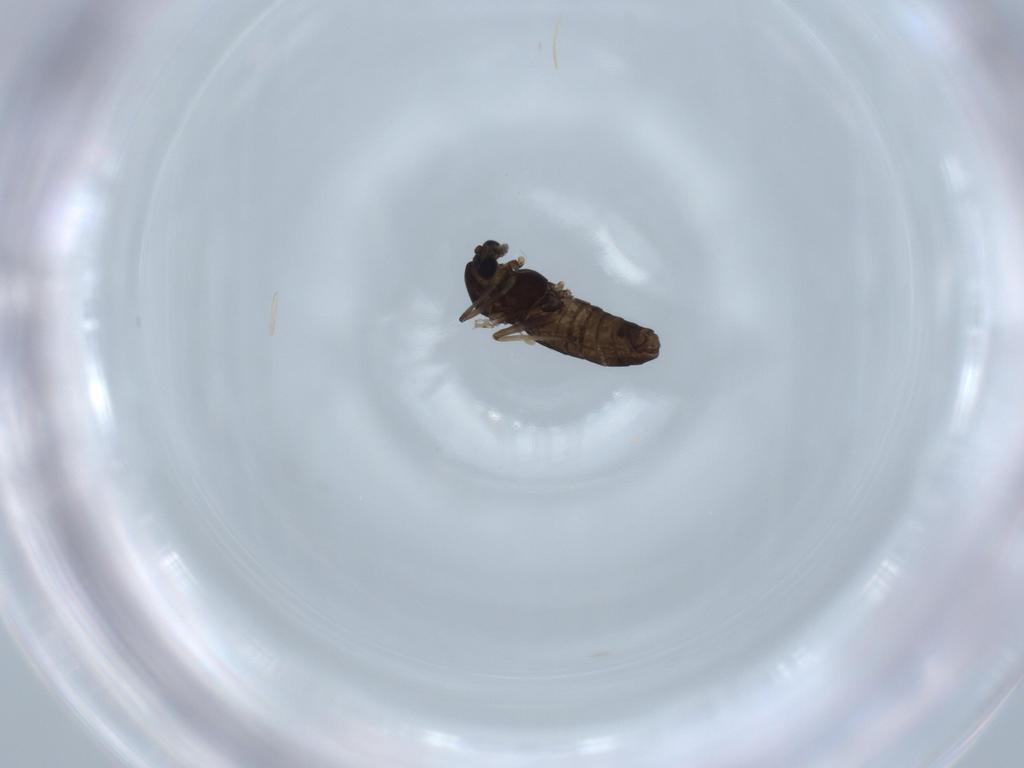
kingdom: Animalia
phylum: Arthropoda
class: Insecta
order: Diptera
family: Chironomidae
